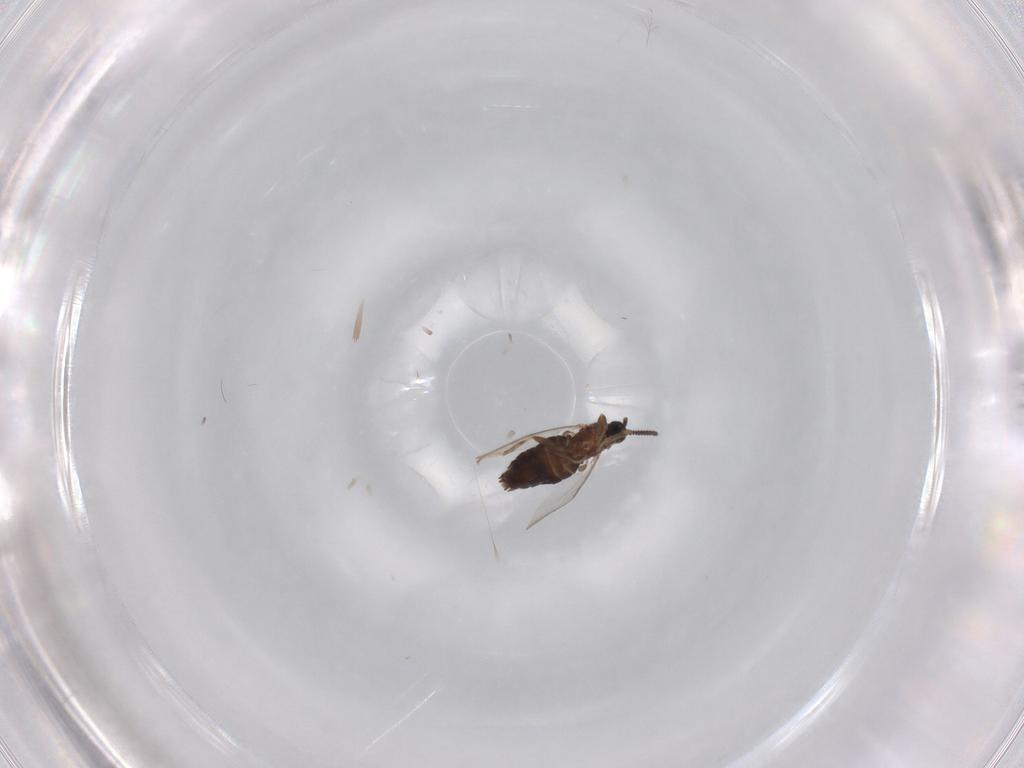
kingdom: Animalia
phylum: Arthropoda
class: Insecta
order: Diptera
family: Scatopsidae
